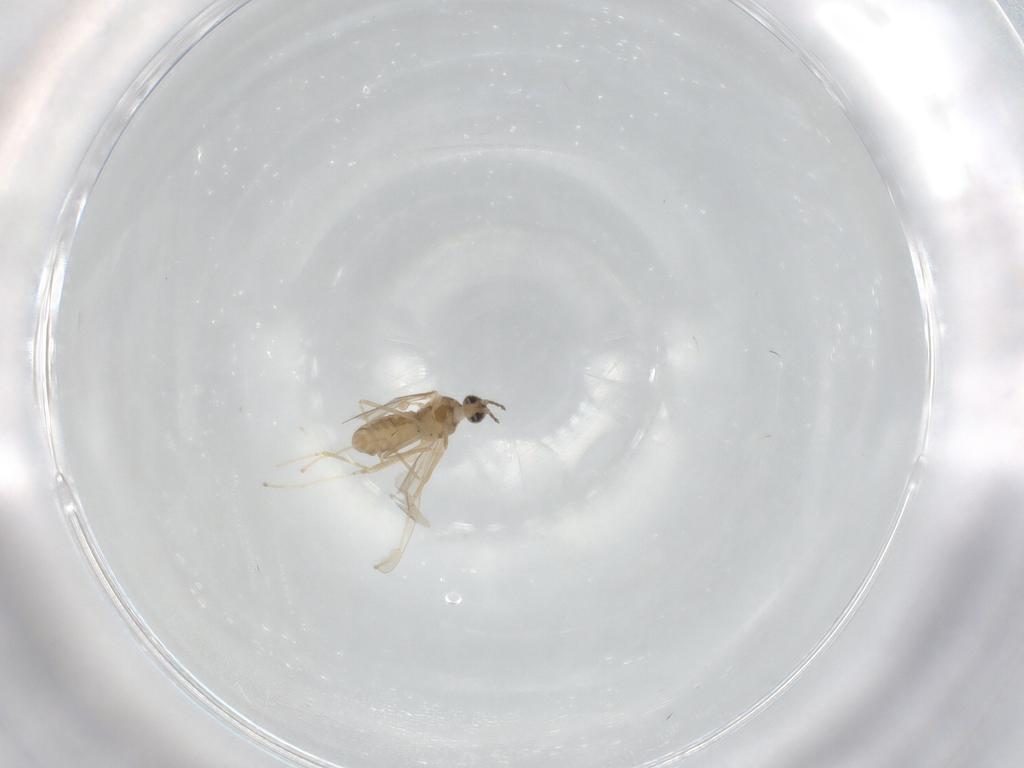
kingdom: Animalia
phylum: Arthropoda
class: Insecta
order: Diptera
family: Cecidomyiidae
